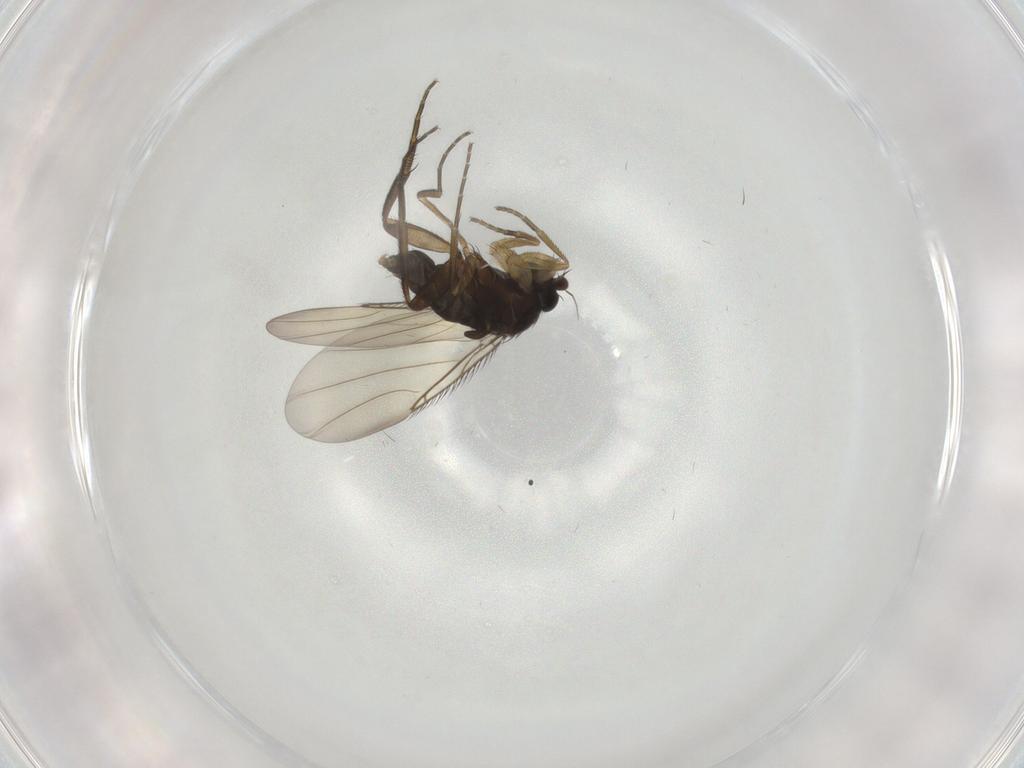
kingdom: Animalia
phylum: Arthropoda
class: Insecta
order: Diptera
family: Phoridae
